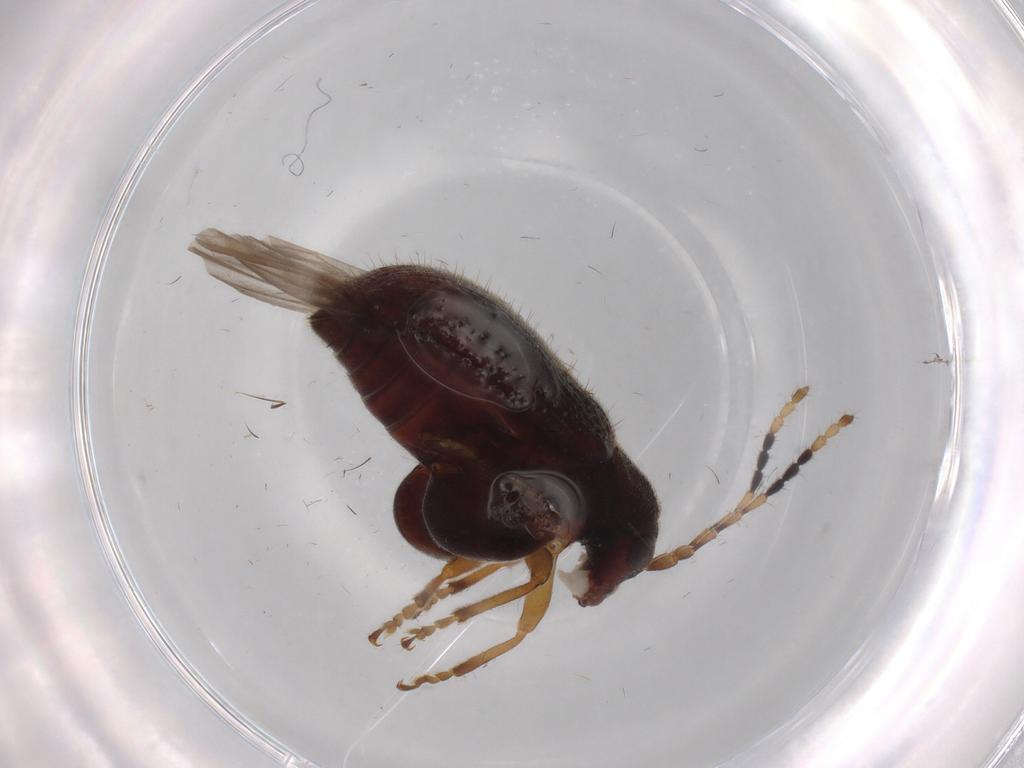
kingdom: Animalia
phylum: Arthropoda
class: Insecta
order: Coleoptera
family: Chrysomelidae
